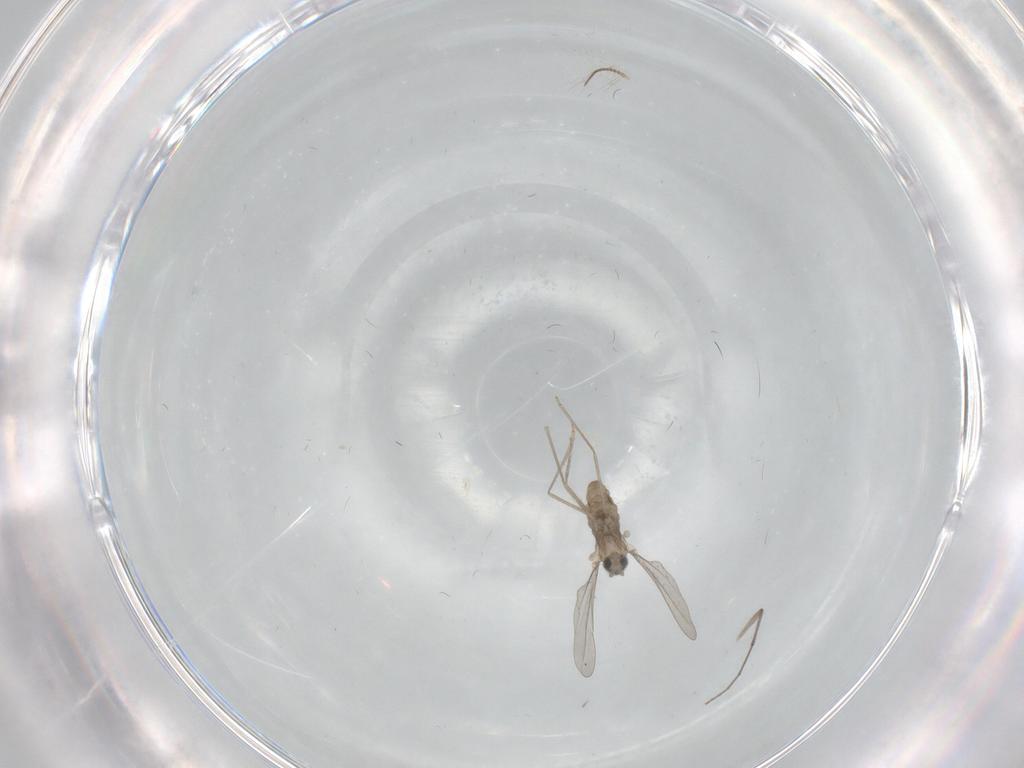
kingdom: Animalia
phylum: Arthropoda
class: Insecta
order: Diptera
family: Chironomidae
